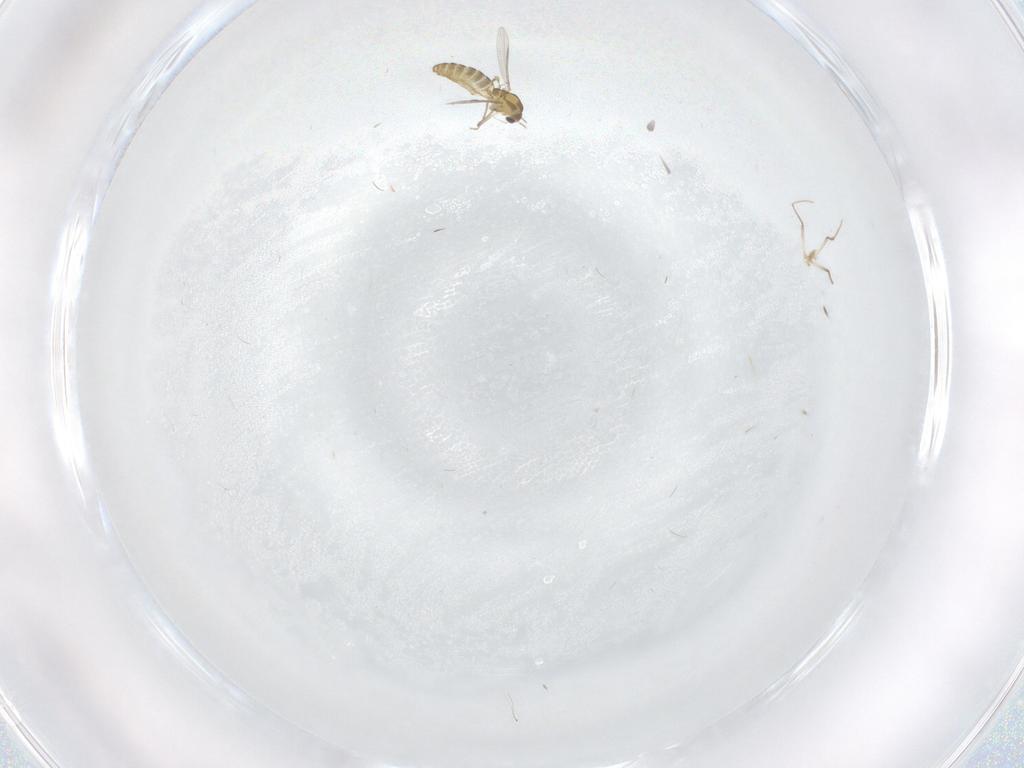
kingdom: Animalia
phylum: Arthropoda
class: Insecta
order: Diptera
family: Chironomidae
